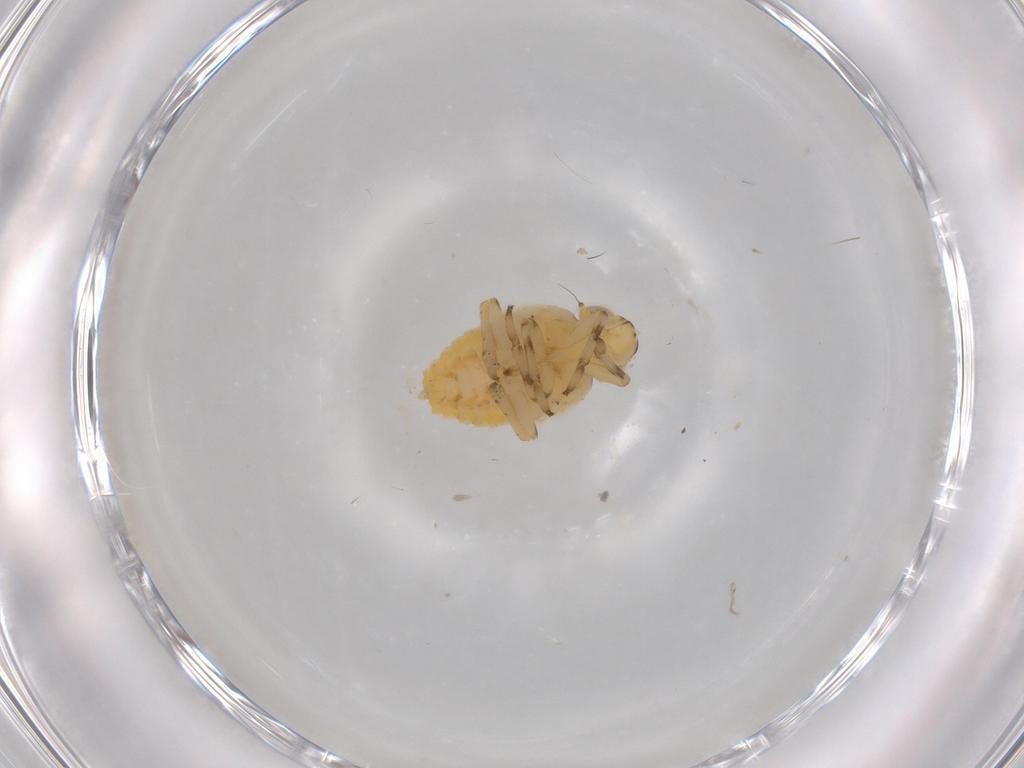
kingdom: Animalia
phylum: Arthropoda
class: Insecta
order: Hemiptera
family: Issidae
